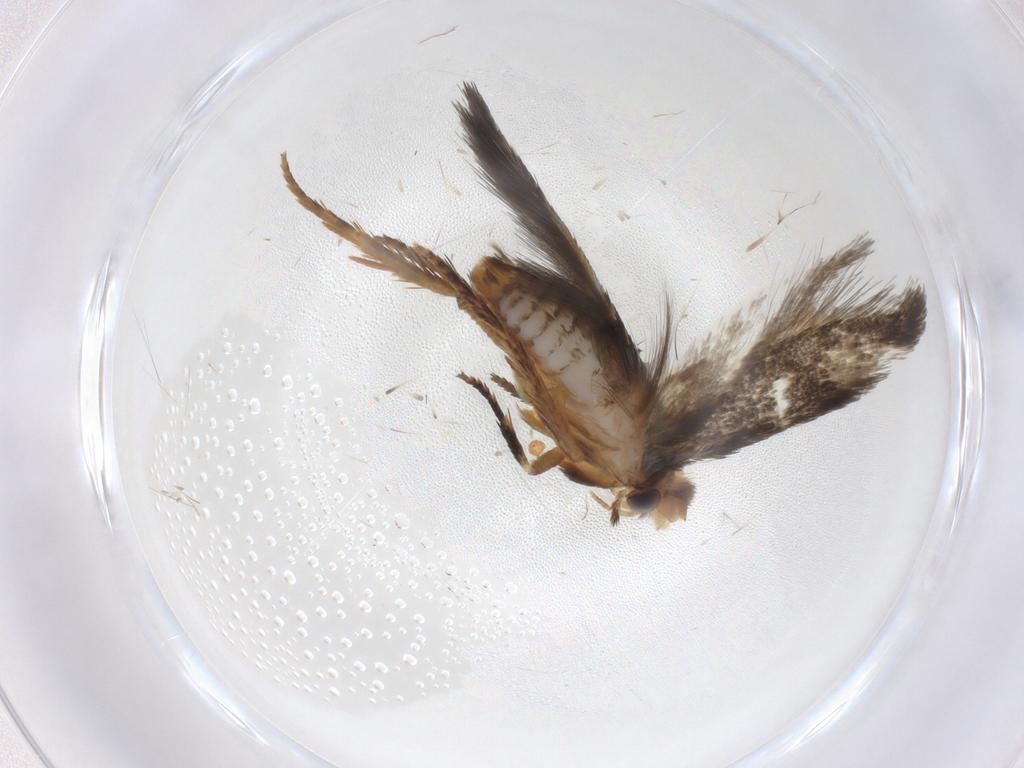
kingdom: Animalia
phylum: Arthropoda
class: Insecta
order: Lepidoptera
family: Nepticulidae
